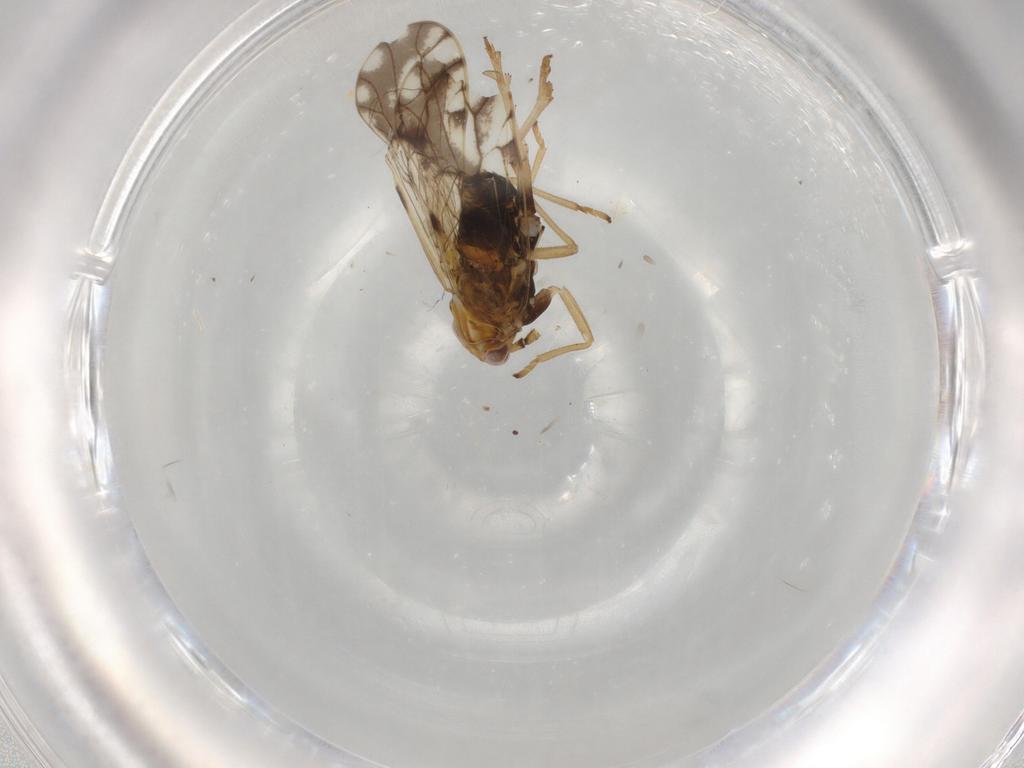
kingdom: Animalia
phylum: Arthropoda
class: Insecta
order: Hemiptera
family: Delphacidae
